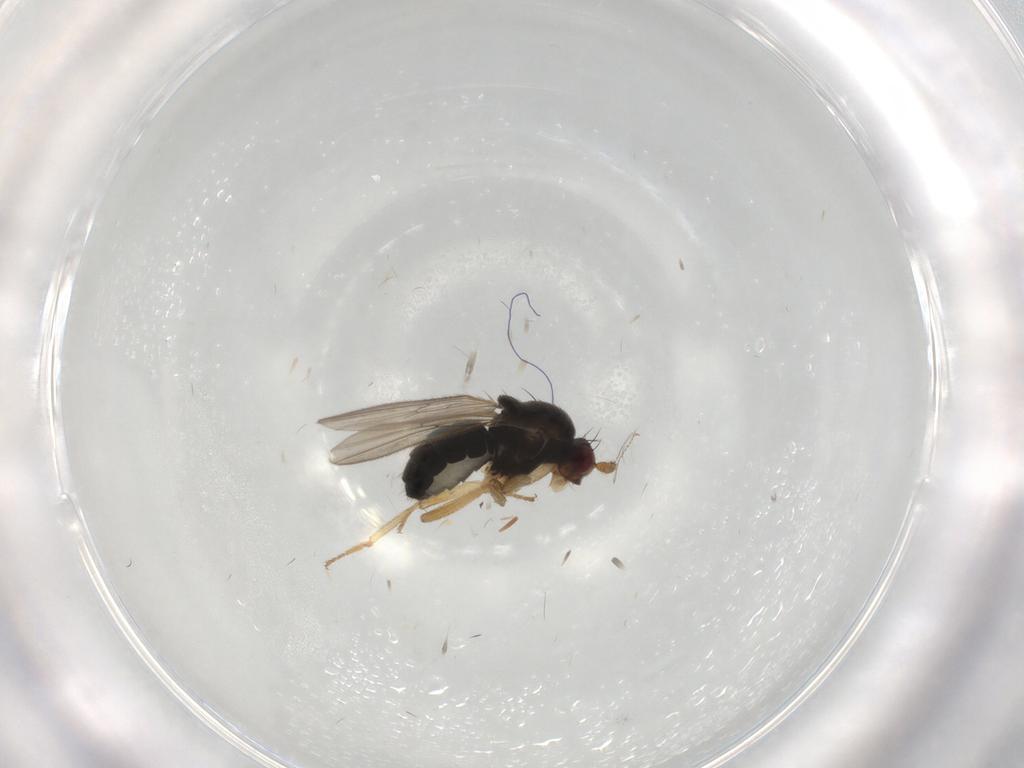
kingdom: Animalia
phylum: Arthropoda
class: Insecta
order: Diptera
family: Sphaeroceridae
